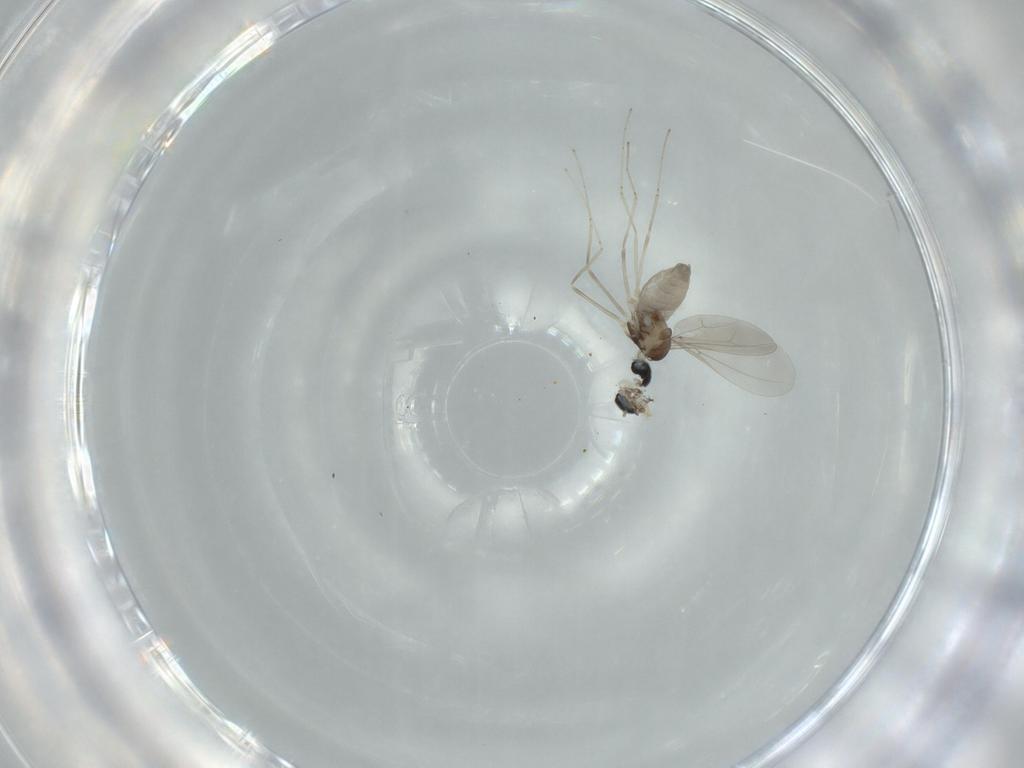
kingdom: Animalia
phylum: Arthropoda
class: Insecta
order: Diptera
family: Cecidomyiidae
